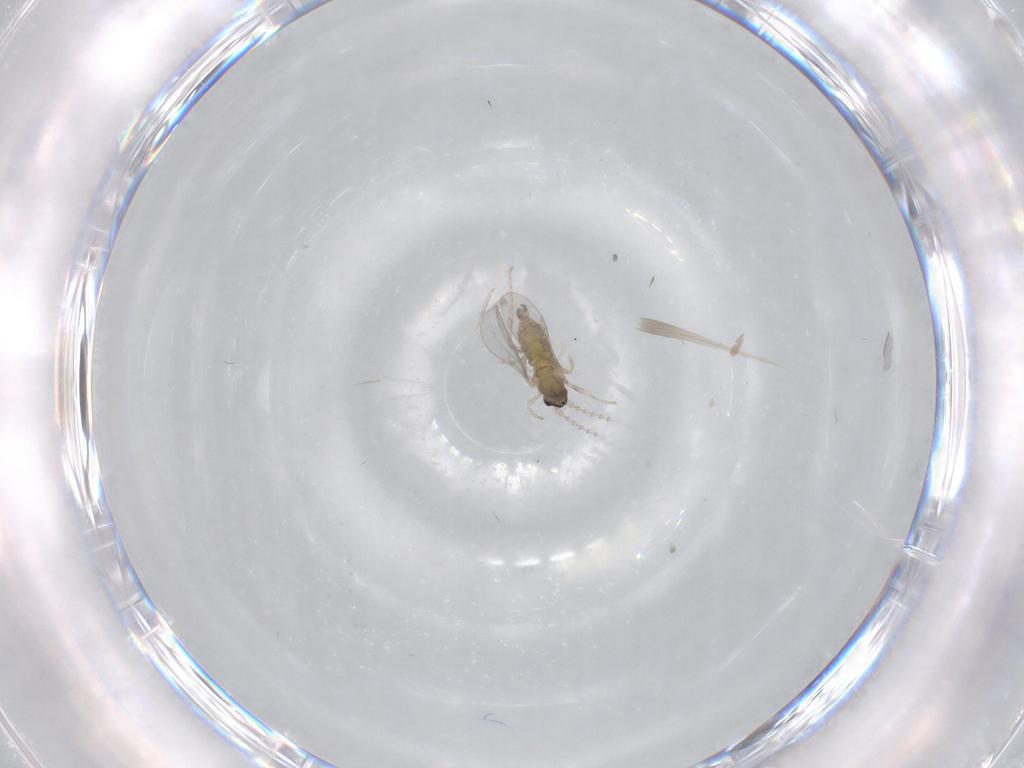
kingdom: Animalia
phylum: Arthropoda
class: Insecta
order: Diptera
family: Cecidomyiidae
